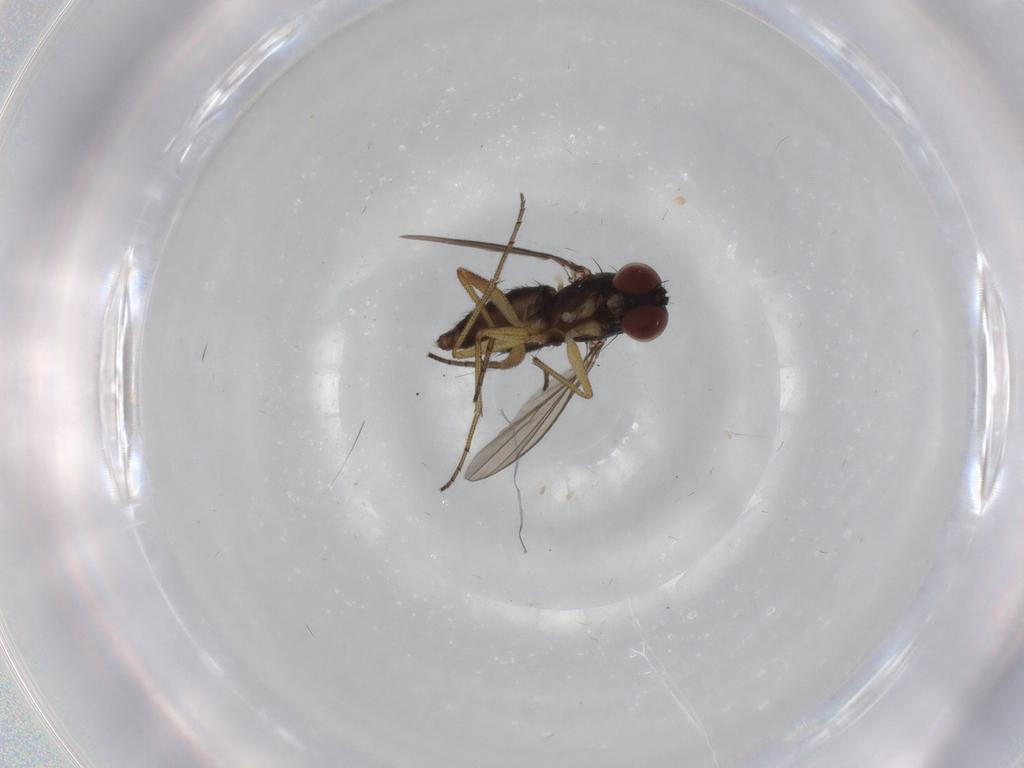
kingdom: Animalia
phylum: Arthropoda
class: Insecta
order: Diptera
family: Dolichopodidae
